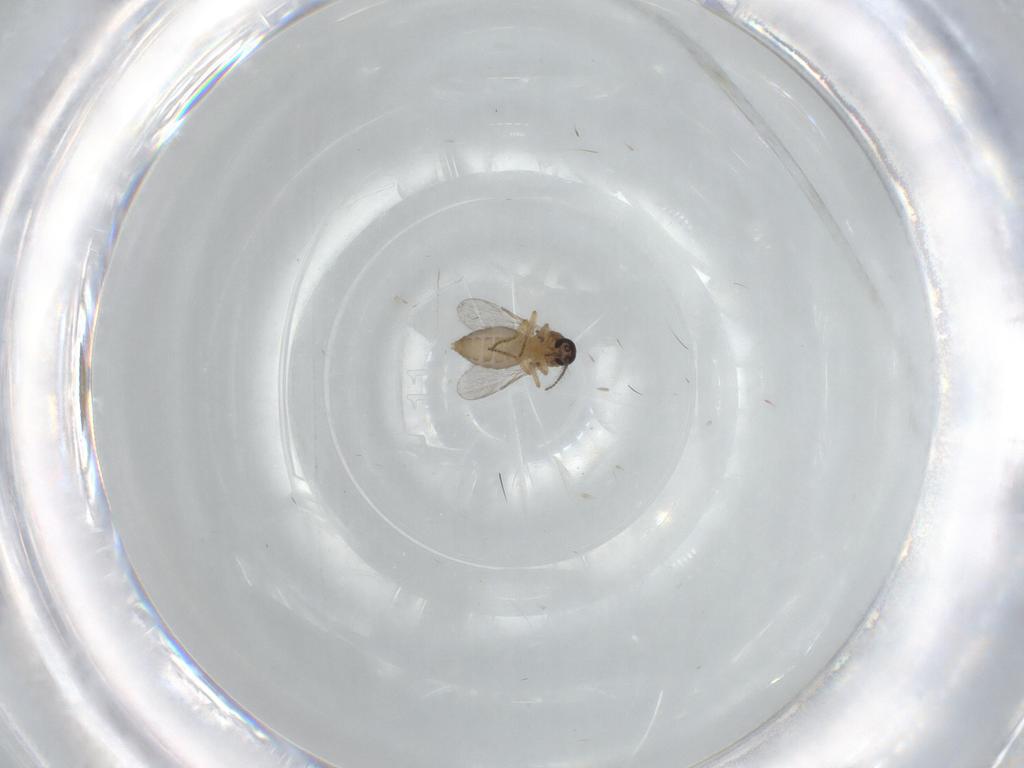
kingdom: Animalia
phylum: Arthropoda
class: Insecta
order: Diptera
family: Ceratopogonidae
